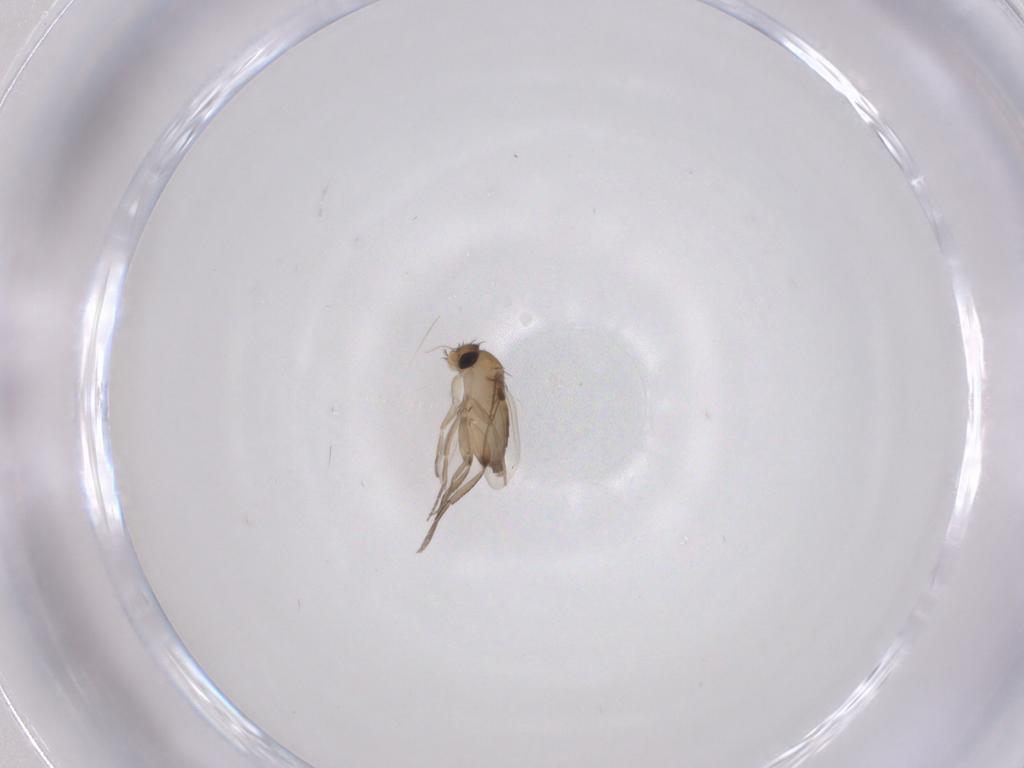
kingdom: Animalia
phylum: Arthropoda
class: Insecta
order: Diptera
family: Phoridae
